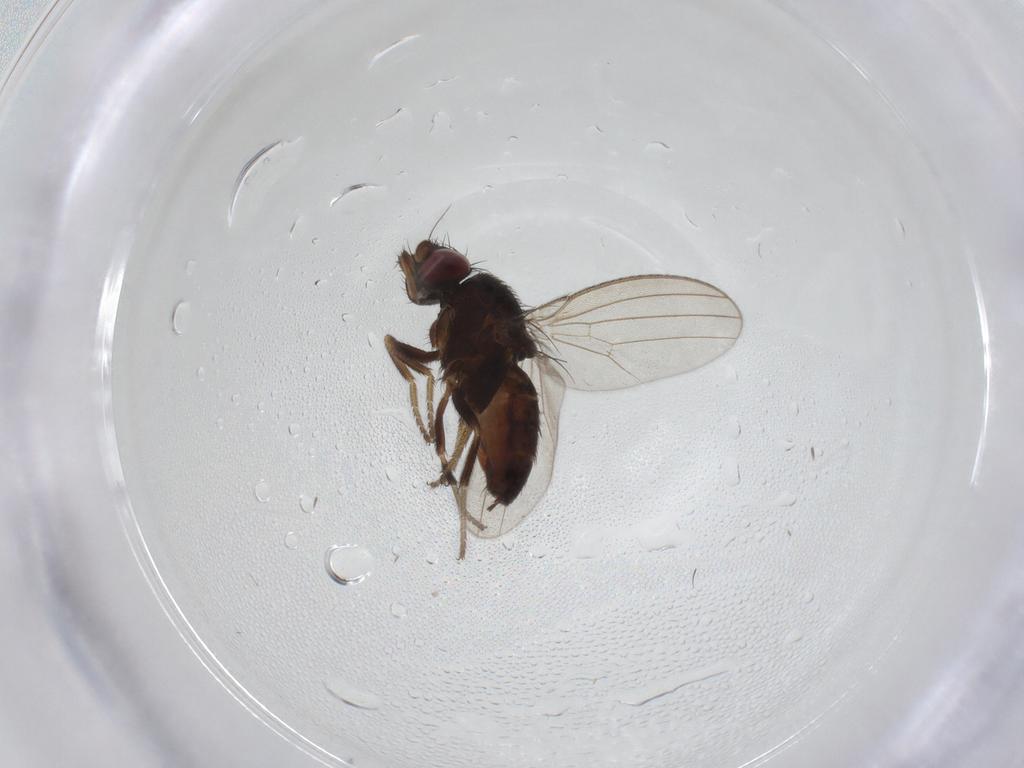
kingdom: Animalia
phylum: Arthropoda
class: Insecta
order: Diptera
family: Milichiidae
